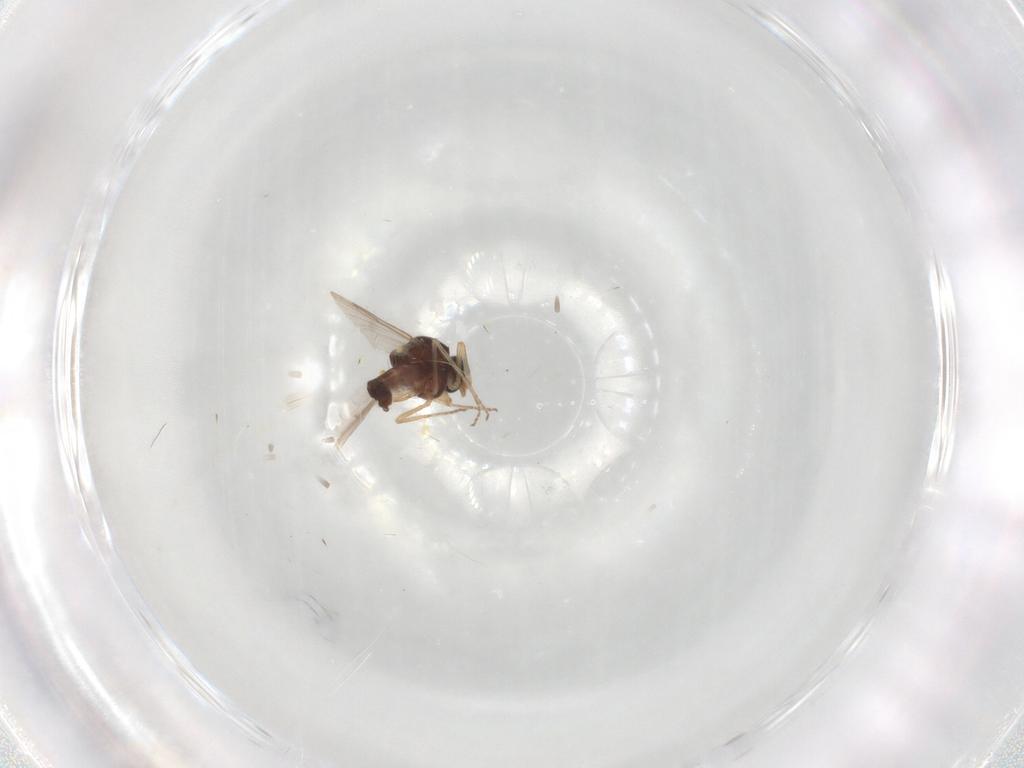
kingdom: Animalia
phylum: Arthropoda
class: Insecta
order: Diptera
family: Ceratopogonidae
